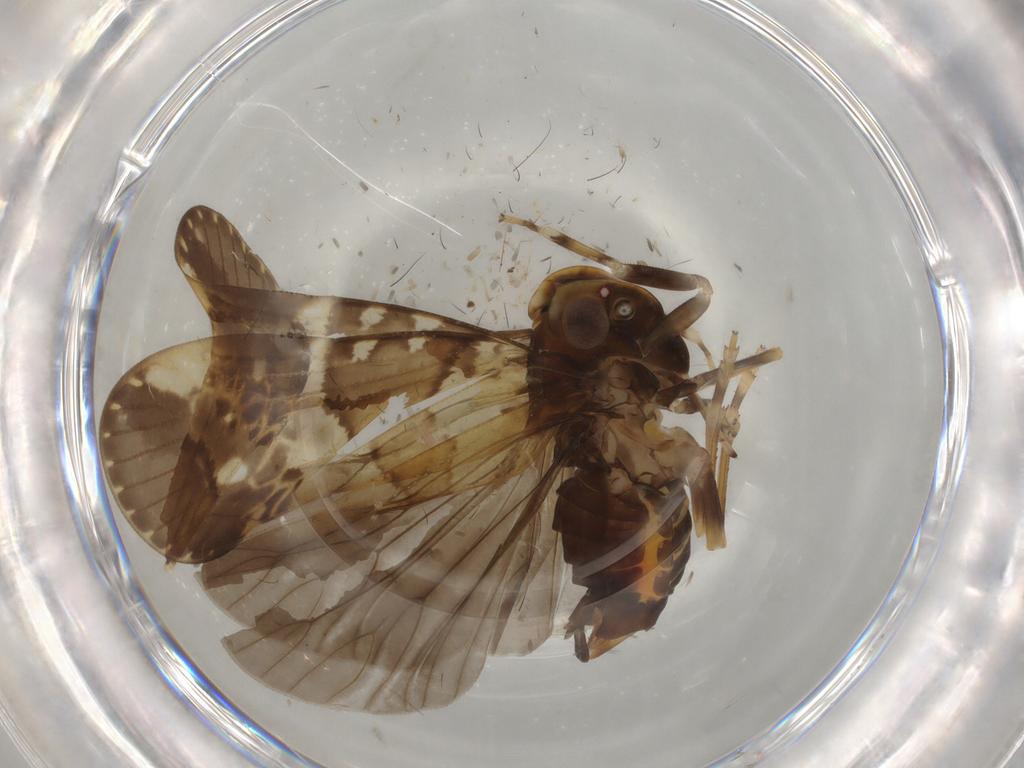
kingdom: Animalia
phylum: Arthropoda
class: Insecta
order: Hemiptera
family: Cixiidae
